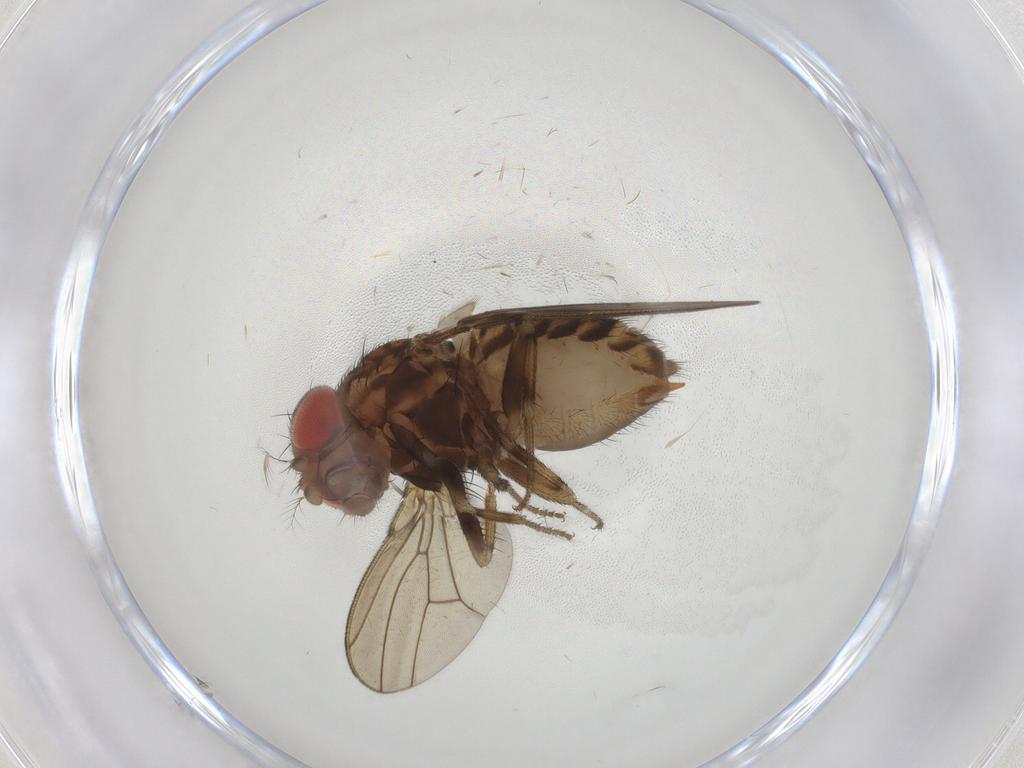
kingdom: Animalia
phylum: Arthropoda
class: Insecta
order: Diptera
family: Drosophilidae
